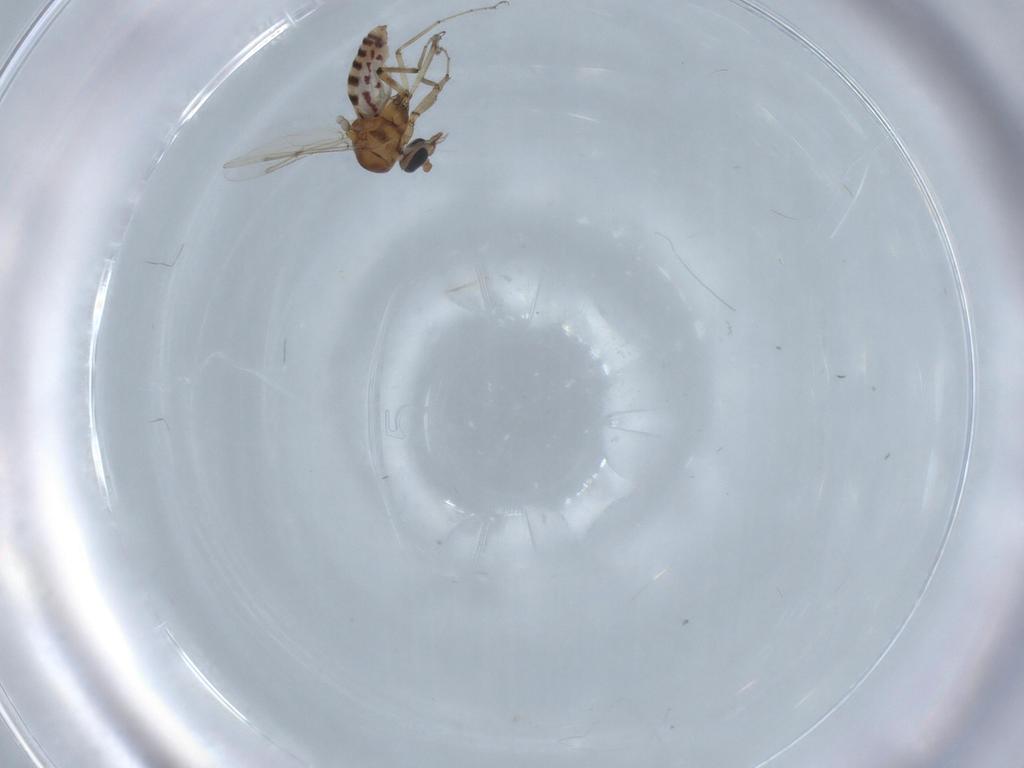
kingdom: Animalia
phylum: Arthropoda
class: Insecta
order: Diptera
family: Ceratopogonidae
